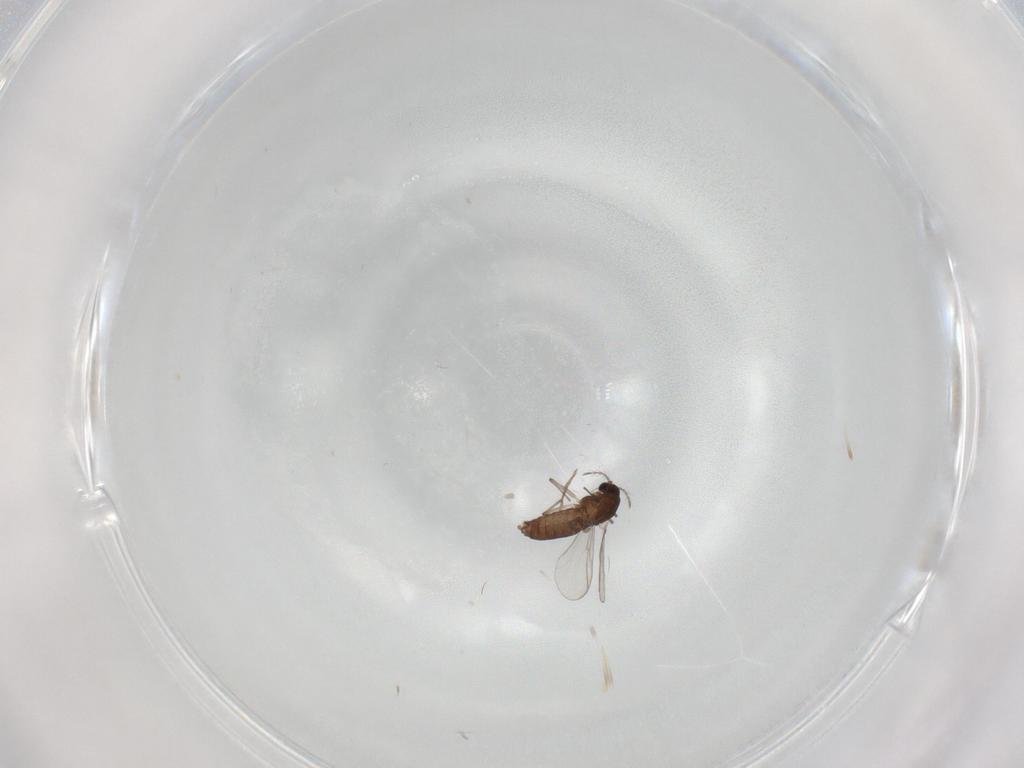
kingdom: Animalia
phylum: Arthropoda
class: Insecta
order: Diptera
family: Chironomidae
